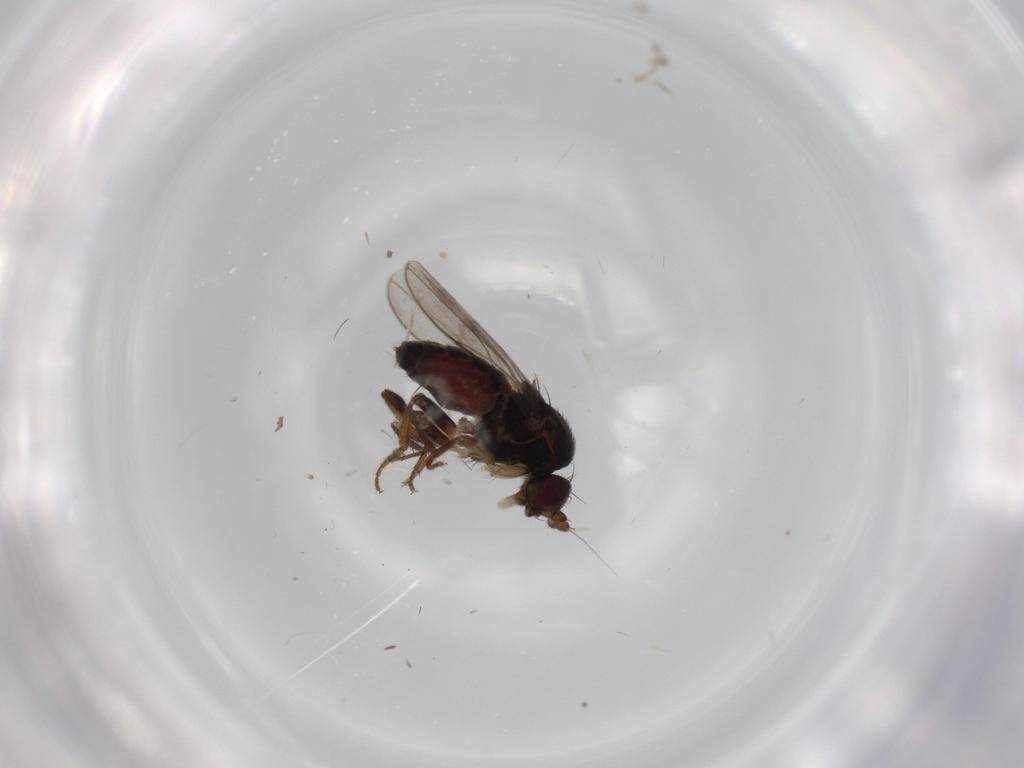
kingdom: Animalia
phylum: Arthropoda
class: Insecta
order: Diptera
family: Sphaeroceridae
